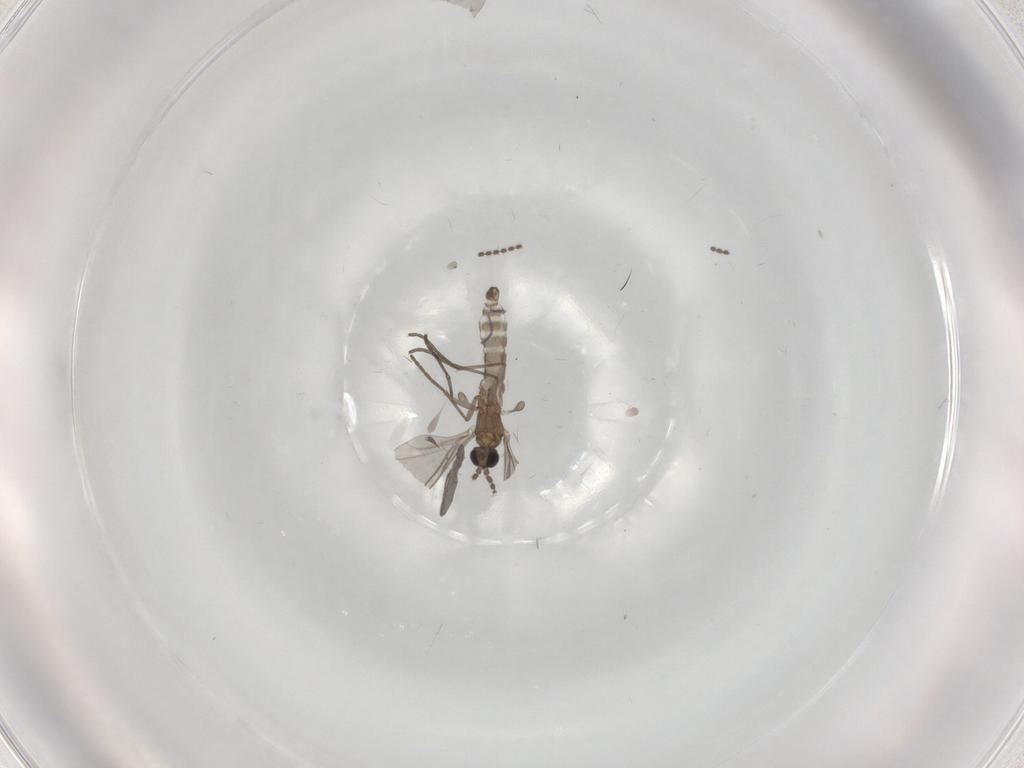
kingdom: Animalia
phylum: Arthropoda
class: Insecta
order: Diptera
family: Sciaridae
